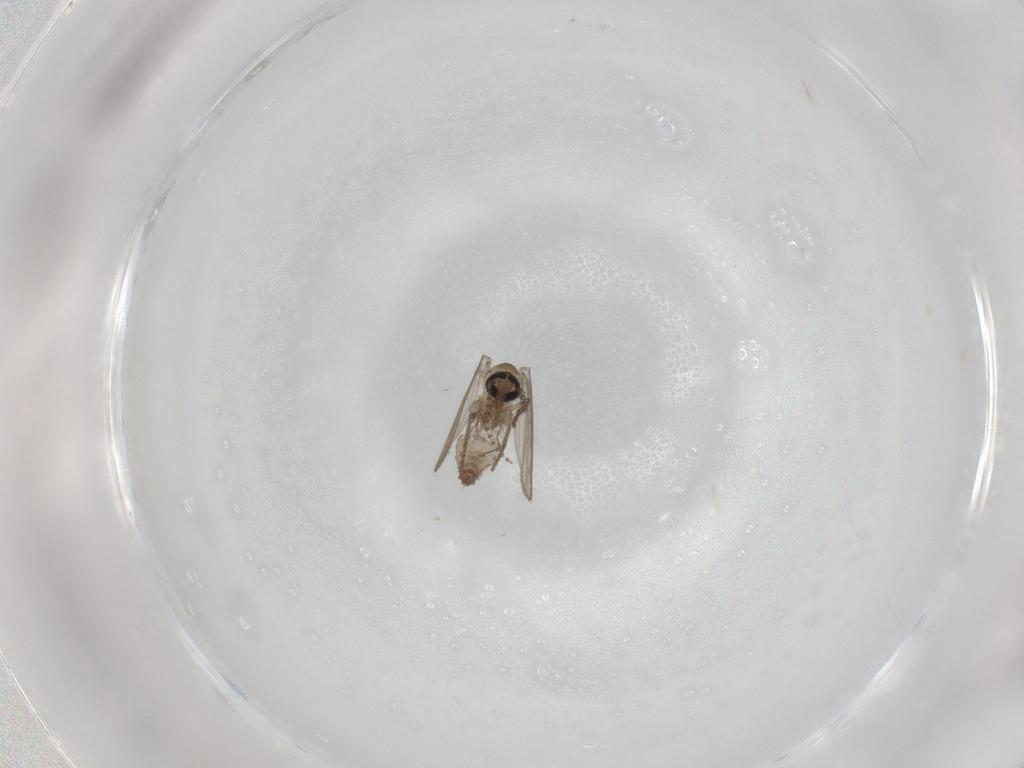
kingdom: Animalia
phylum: Arthropoda
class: Insecta
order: Diptera
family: Psychodidae
